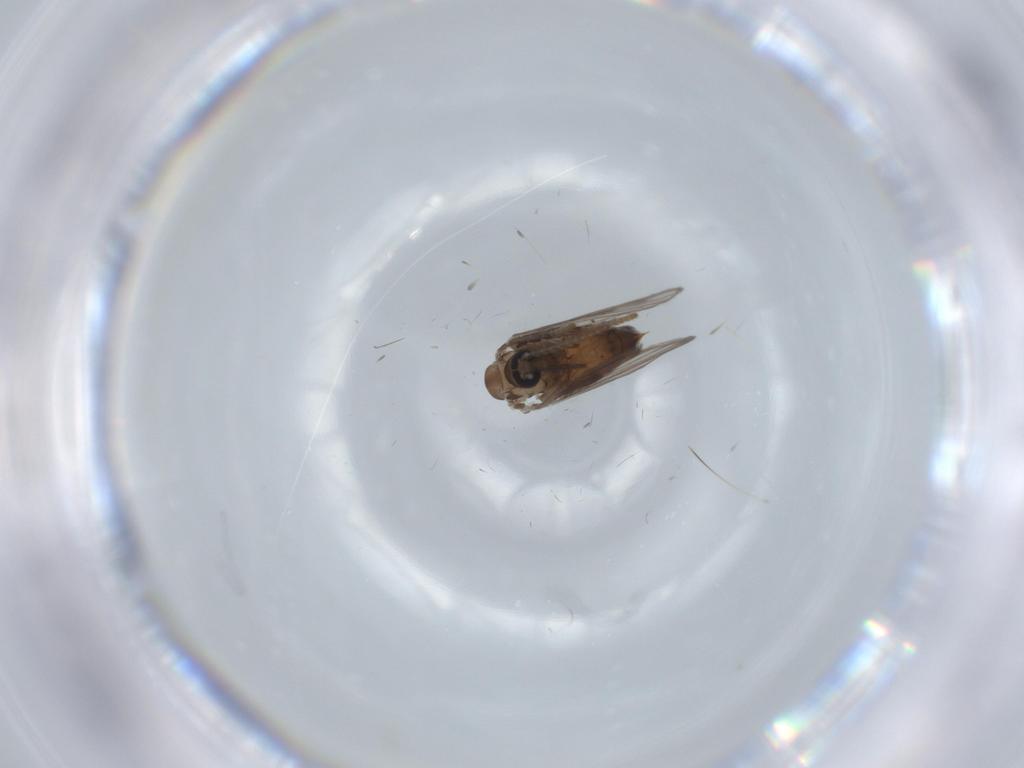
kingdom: Animalia
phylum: Arthropoda
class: Insecta
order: Diptera
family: Psychodidae
